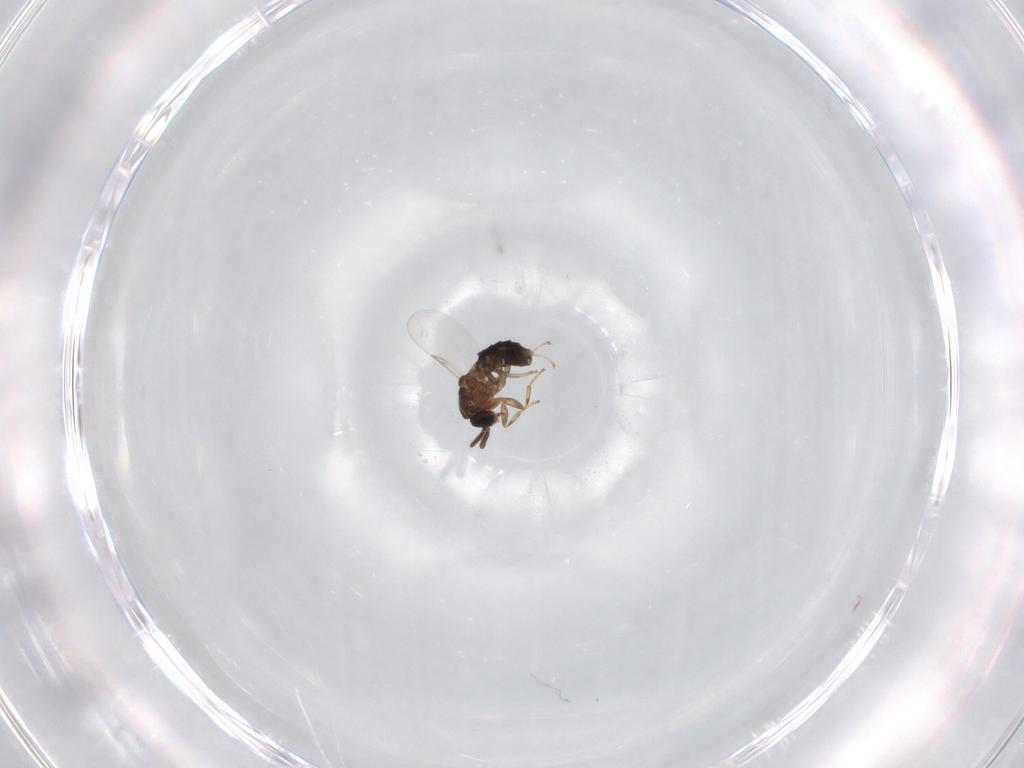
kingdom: Animalia
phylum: Arthropoda
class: Insecta
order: Diptera
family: Scatopsidae
